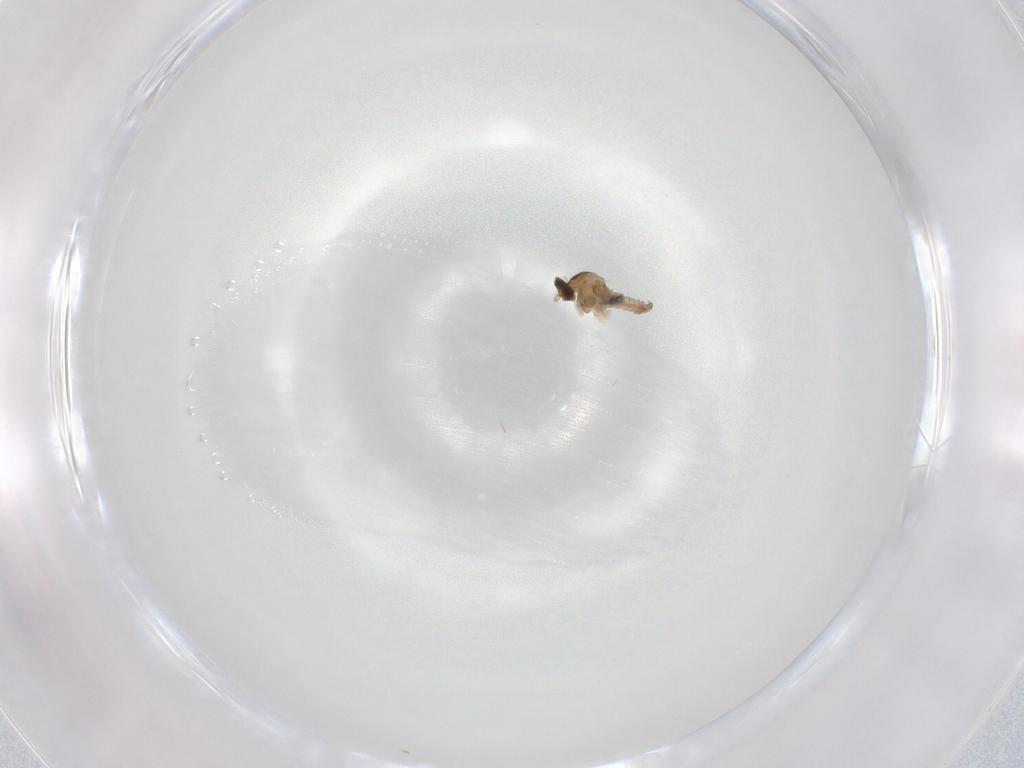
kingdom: Animalia
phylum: Arthropoda
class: Insecta
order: Diptera
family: Cecidomyiidae
